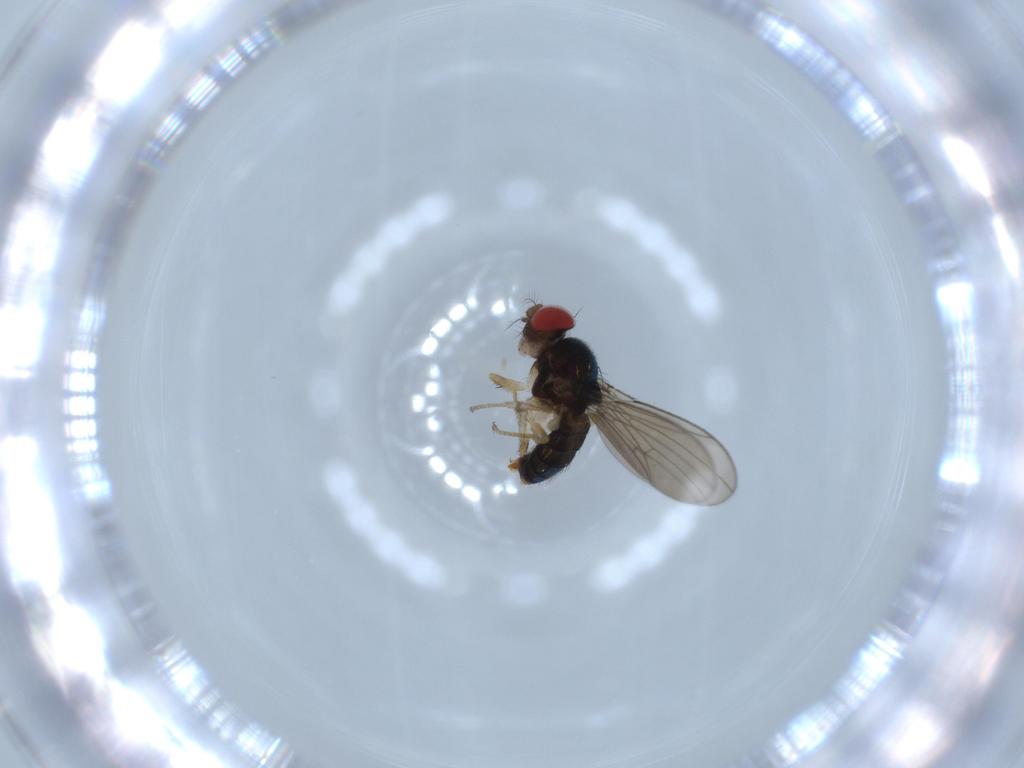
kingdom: Animalia
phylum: Arthropoda
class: Insecta
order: Diptera
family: Drosophilidae
